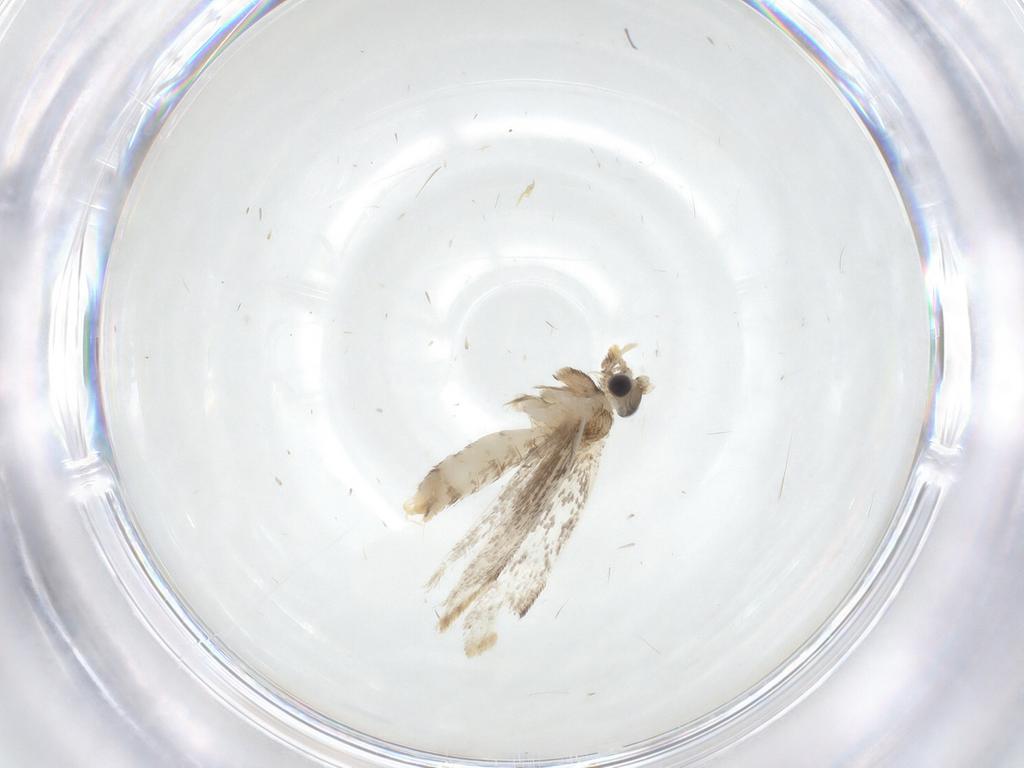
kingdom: Animalia
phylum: Arthropoda
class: Insecta
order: Lepidoptera
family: Dryadaulidae
